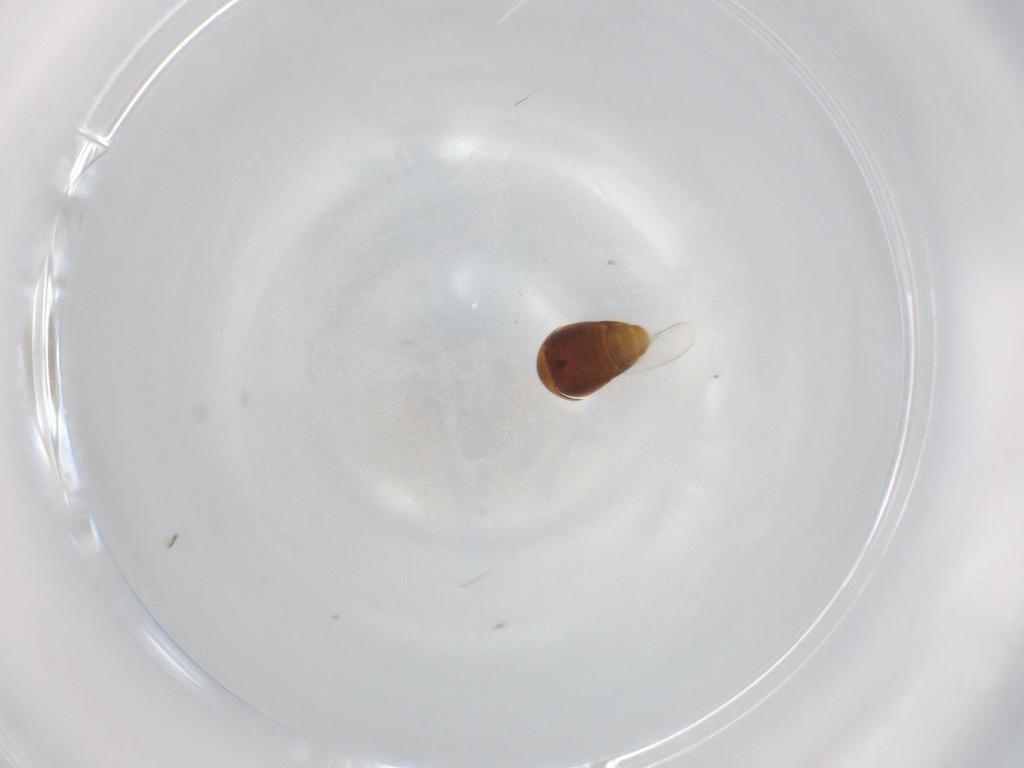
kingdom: Animalia
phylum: Arthropoda
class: Insecta
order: Coleoptera
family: Corylophidae
